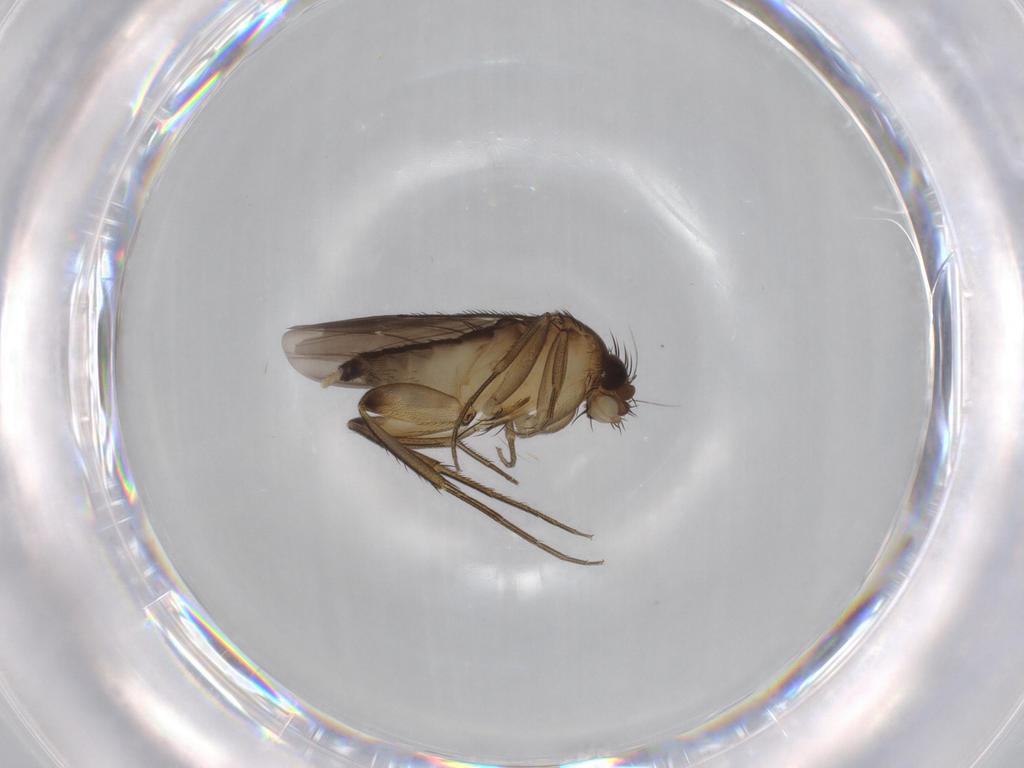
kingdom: Animalia
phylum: Arthropoda
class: Insecta
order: Diptera
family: Phoridae
